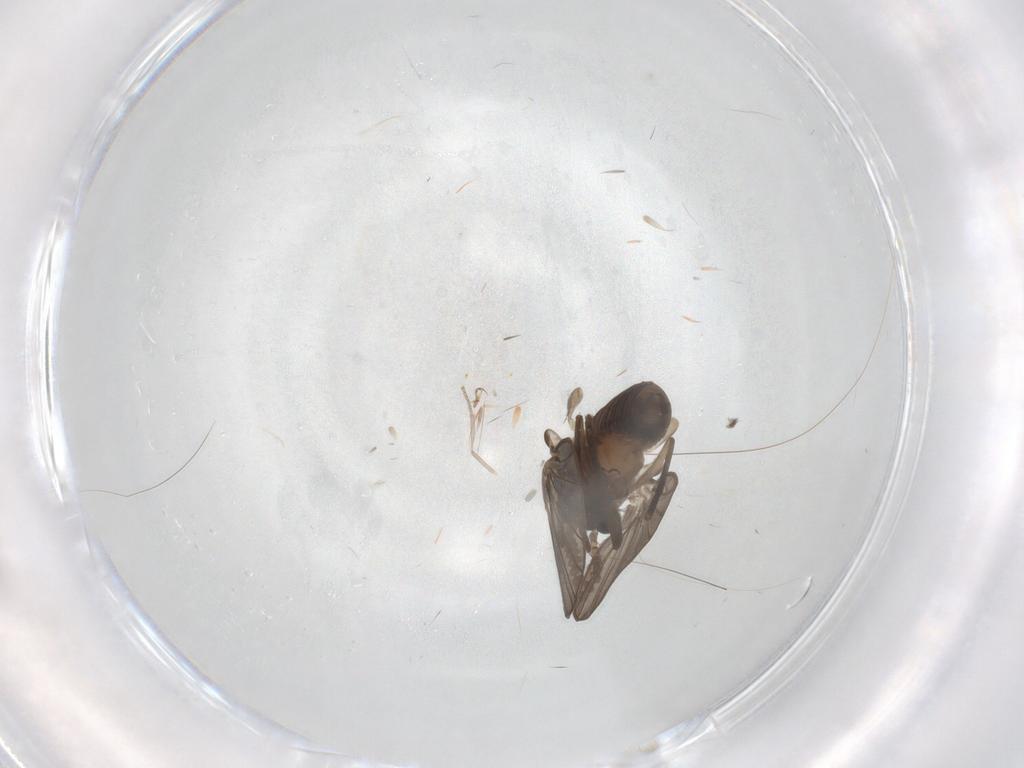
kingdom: Animalia
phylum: Arthropoda
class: Insecta
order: Diptera
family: Psychodidae
